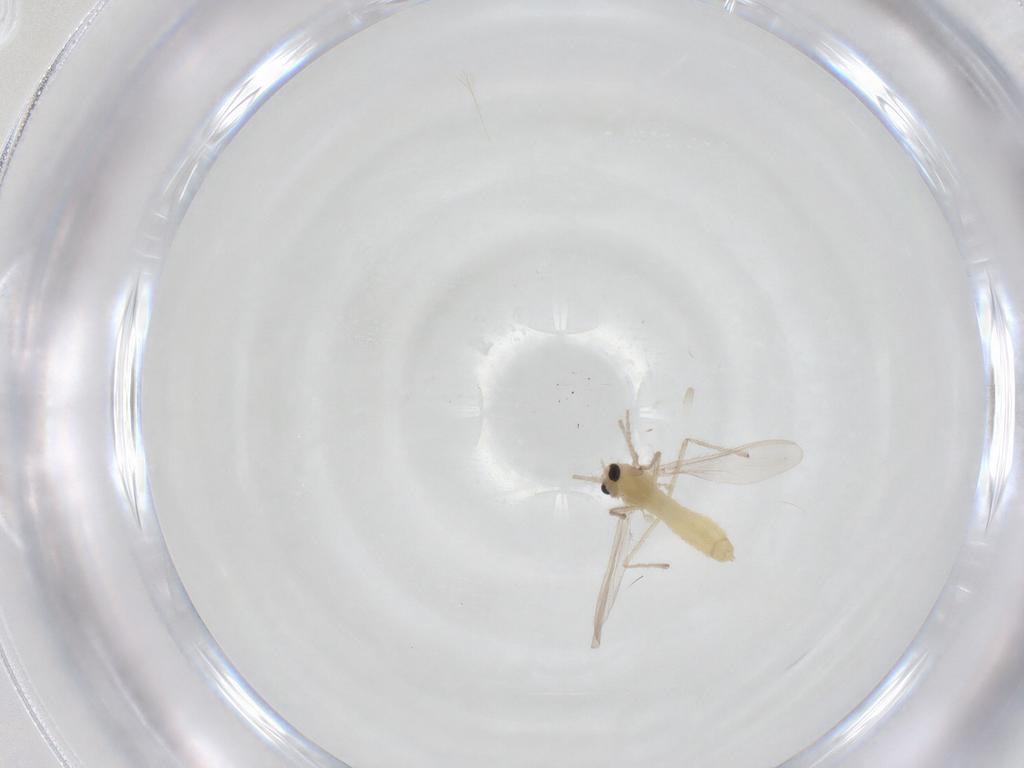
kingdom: Animalia
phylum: Arthropoda
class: Insecta
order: Diptera
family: Chironomidae
